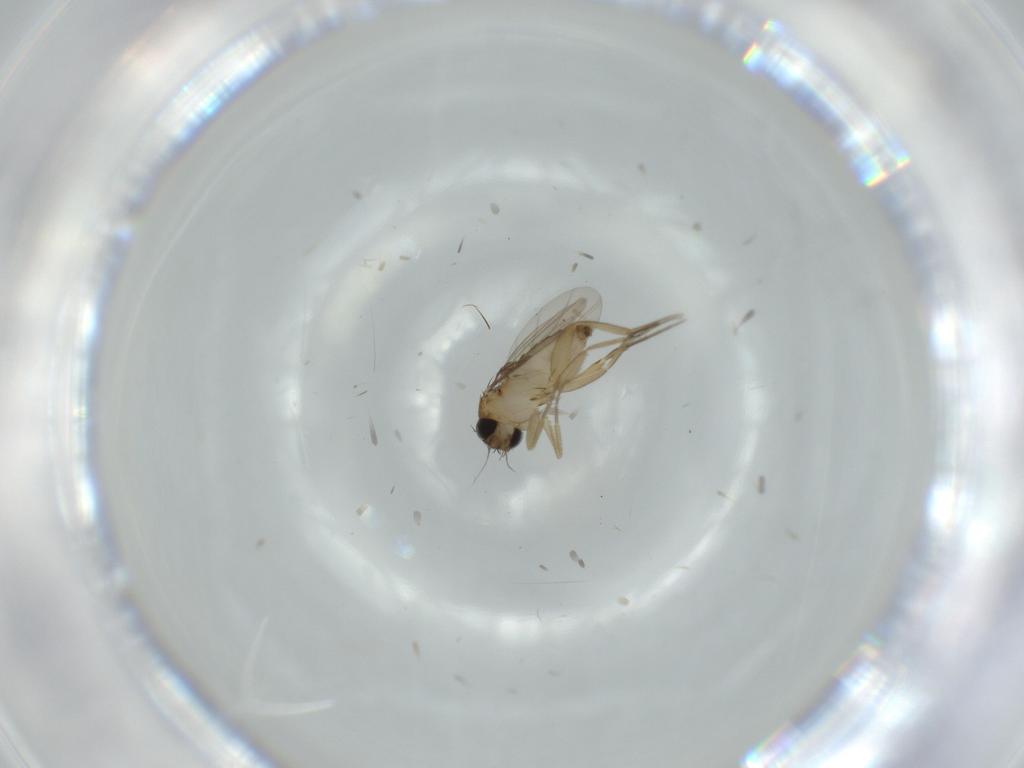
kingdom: Animalia
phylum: Arthropoda
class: Insecta
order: Diptera
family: Phoridae
